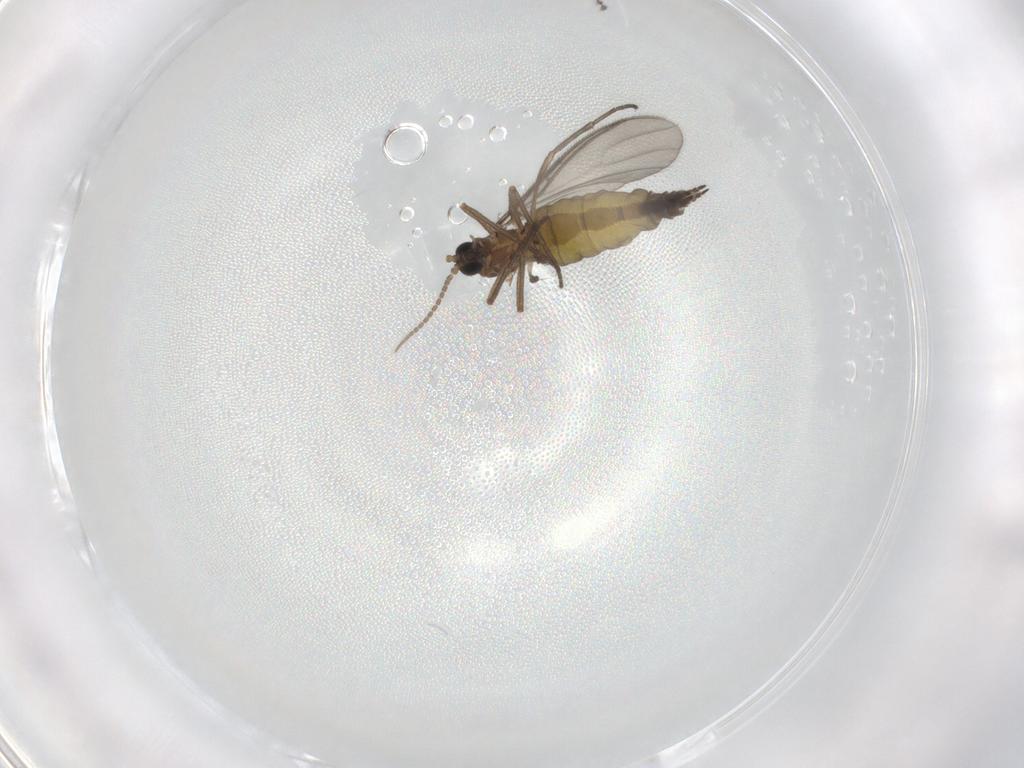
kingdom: Animalia
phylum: Arthropoda
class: Insecta
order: Diptera
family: Sciaridae
